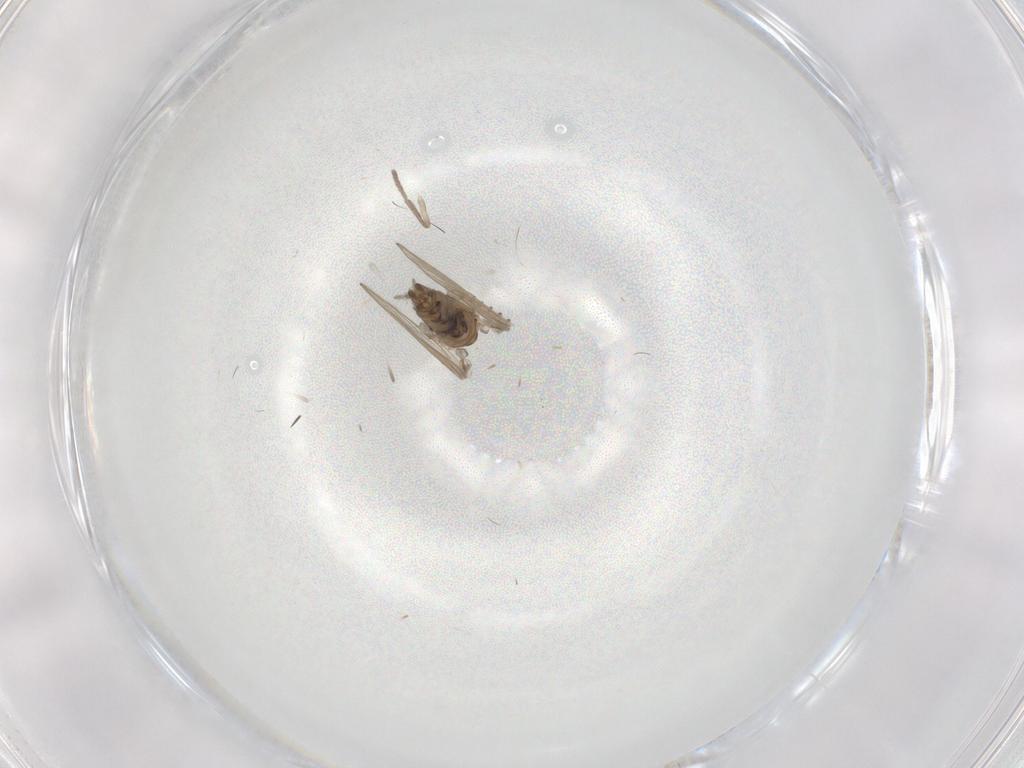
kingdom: Animalia
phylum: Arthropoda
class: Insecta
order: Diptera
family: Psychodidae
